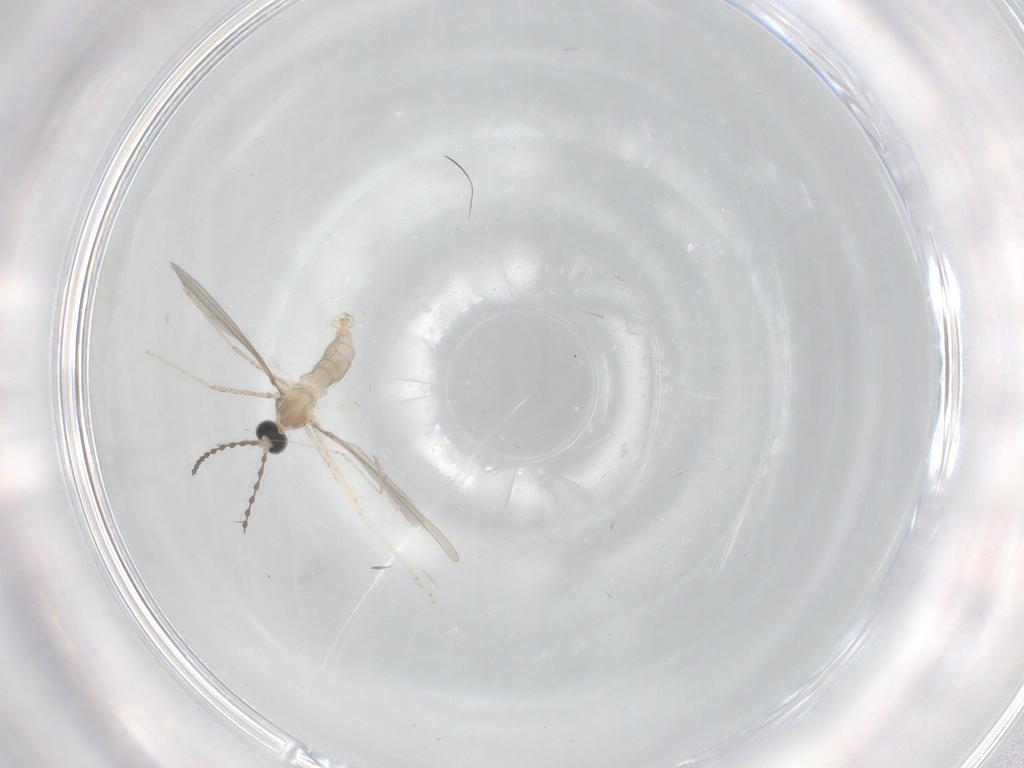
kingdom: Animalia
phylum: Arthropoda
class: Insecta
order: Diptera
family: Cecidomyiidae
